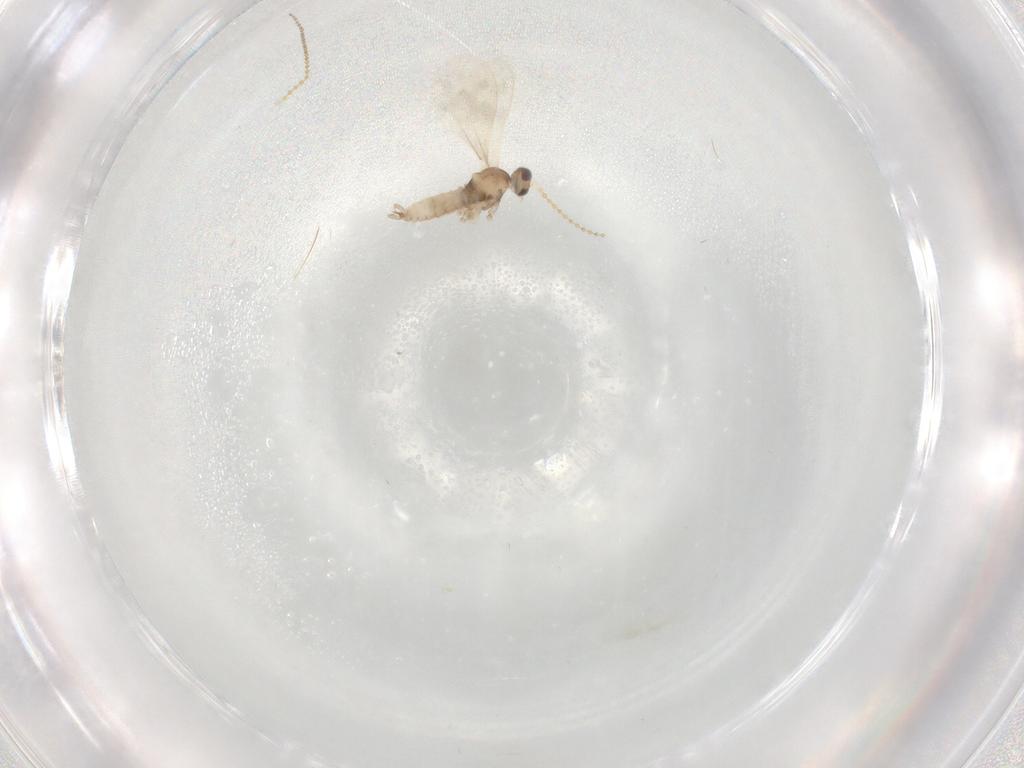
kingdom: Animalia
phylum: Arthropoda
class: Insecta
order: Diptera
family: Cecidomyiidae
